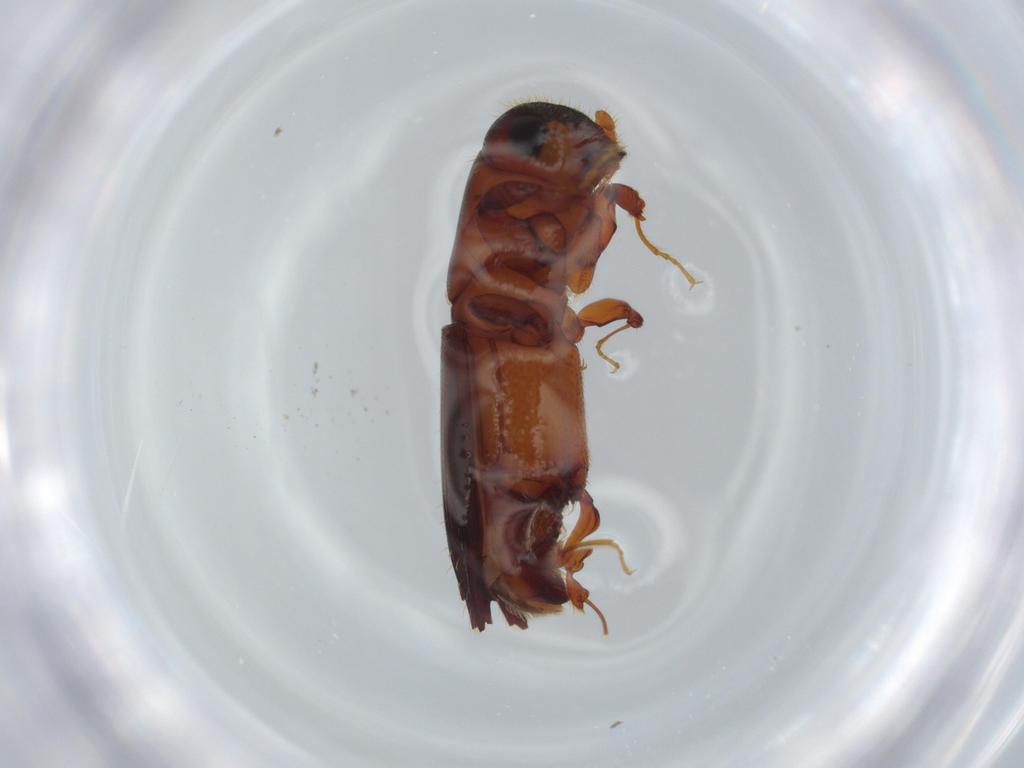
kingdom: Animalia
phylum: Arthropoda
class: Insecta
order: Coleoptera
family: Curculionidae
